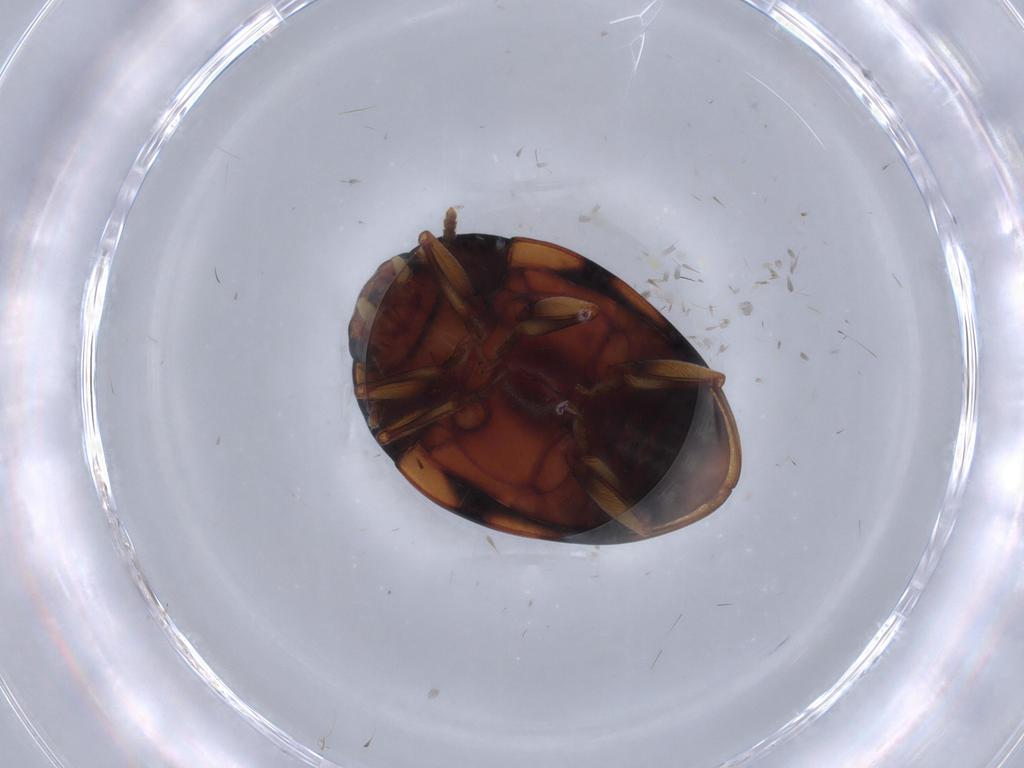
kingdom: Animalia
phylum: Arthropoda
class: Insecta
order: Coleoptera
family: Erotylidae
